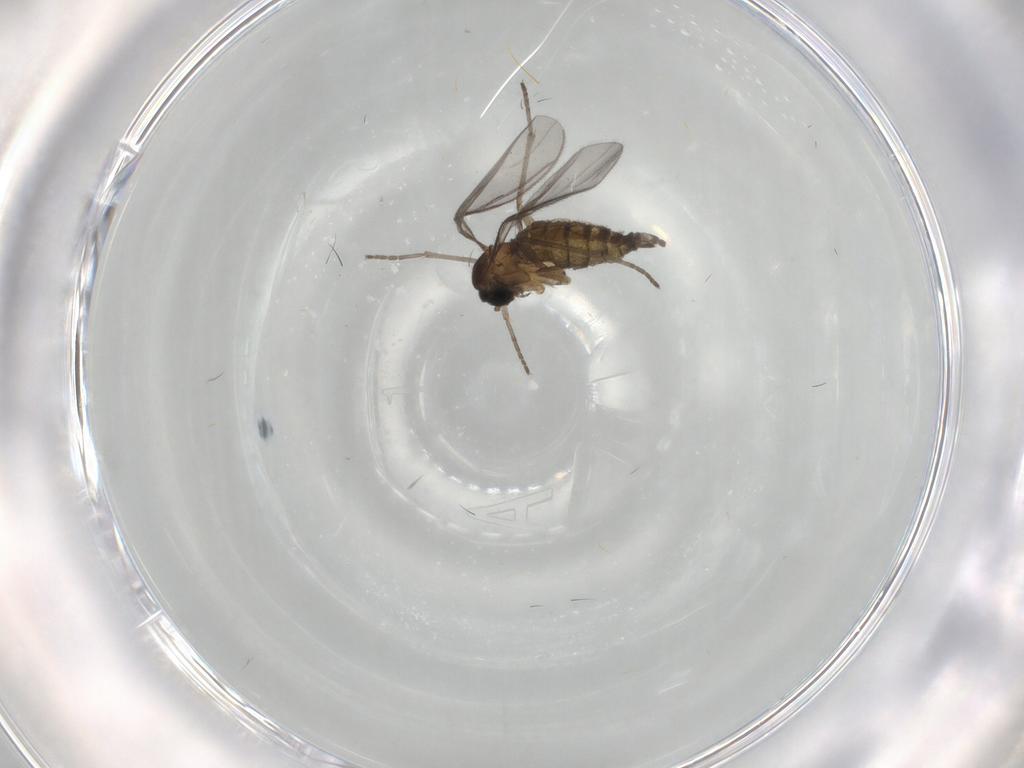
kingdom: Animalia
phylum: Arthropoda
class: Insecta
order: Diptera
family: Sciaridae
